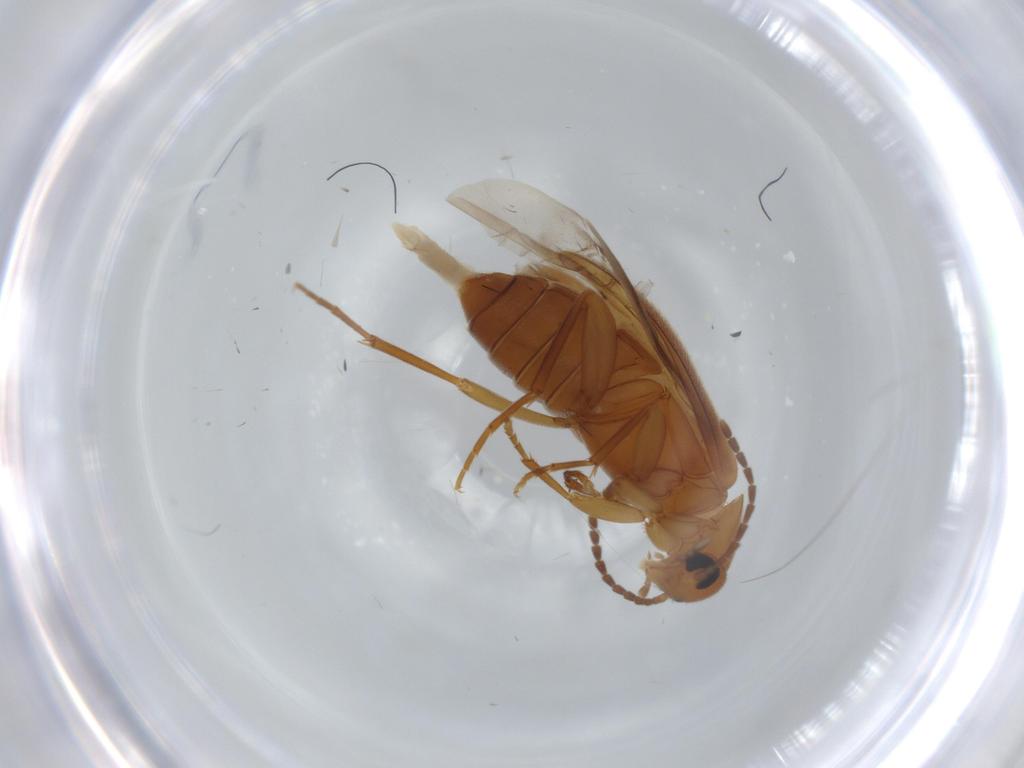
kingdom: Animalia
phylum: Arthropoda
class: Insecta
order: Coleoptera
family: Scraptiidae
